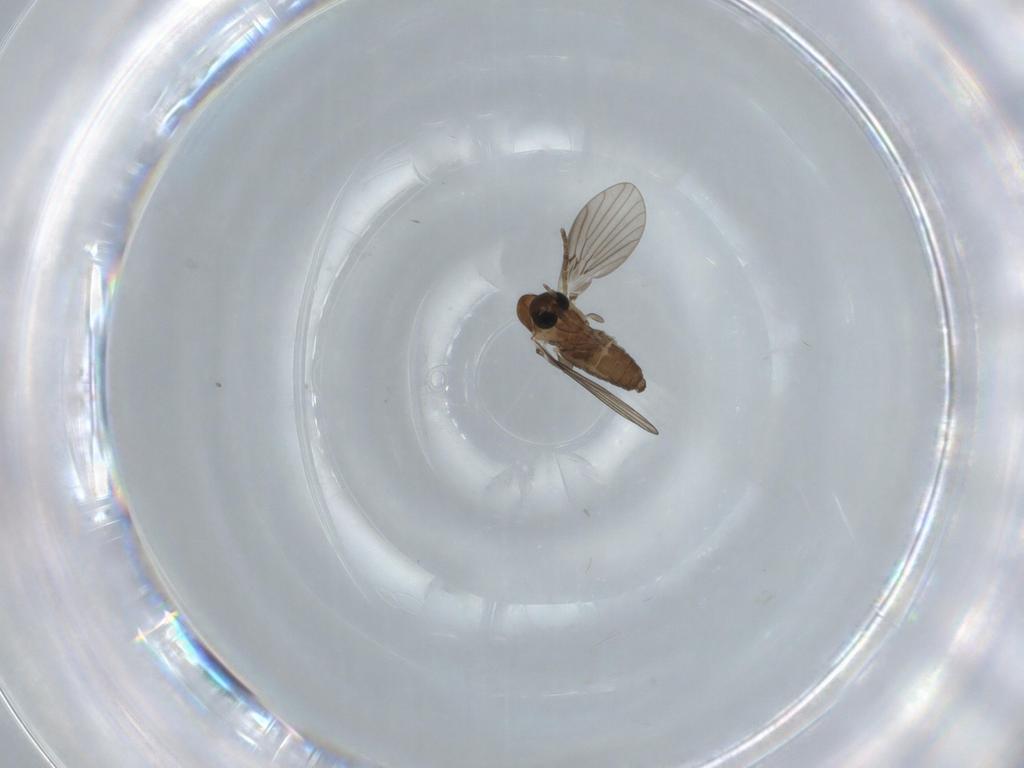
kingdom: Animalia
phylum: Arthropoda
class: Insecta
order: Diptera
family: Psychodidae
